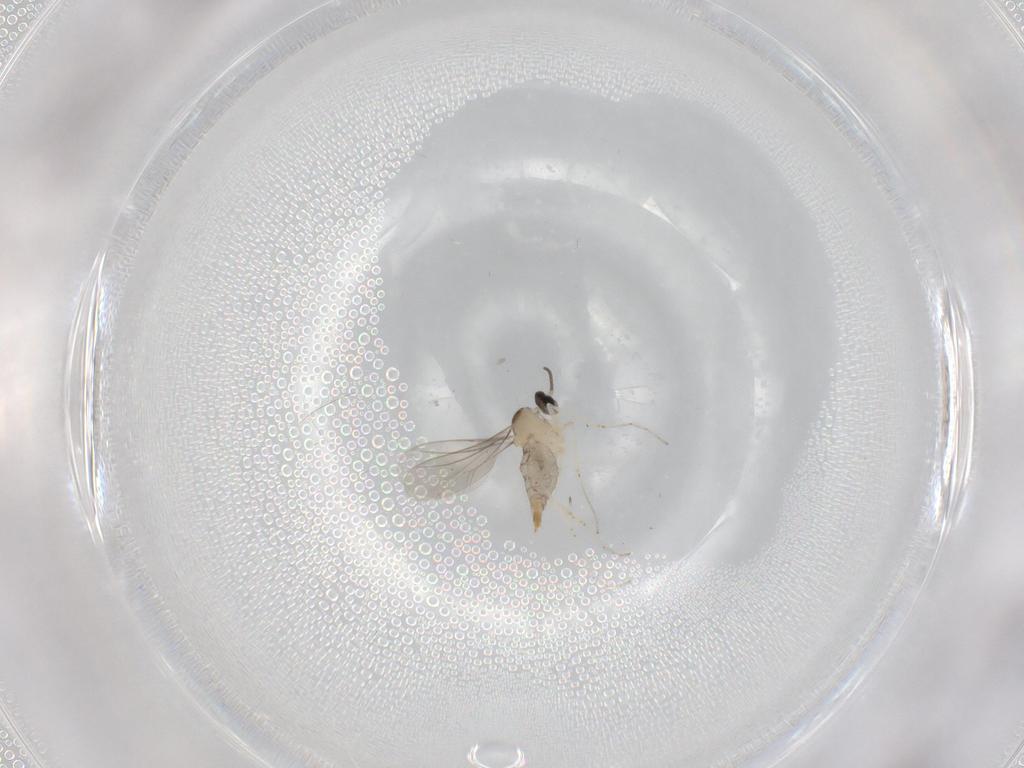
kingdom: Animalia
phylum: Arthropoda
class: Insecta
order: Diptera
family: Cecidomyiidae
